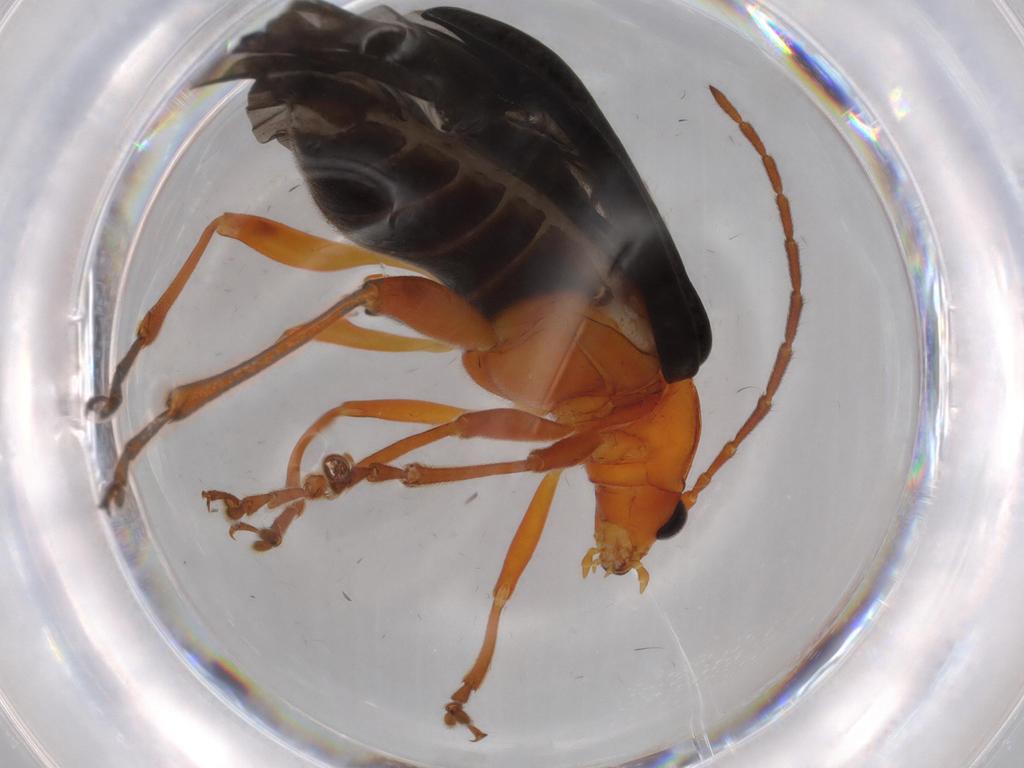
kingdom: Animalia
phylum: Arthropoda
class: Insecta
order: Coleoptera
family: Chrysomelidae
